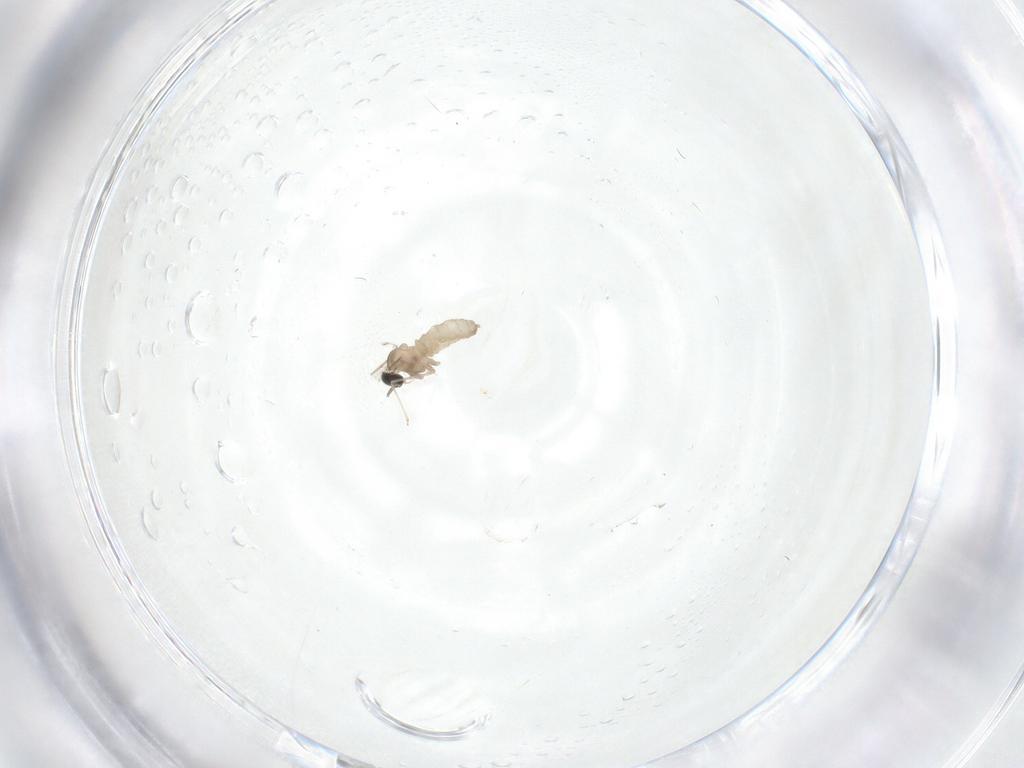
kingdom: Animalia
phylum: Arthropoda
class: Insecta
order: Diptera
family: Cecidomyiidae
